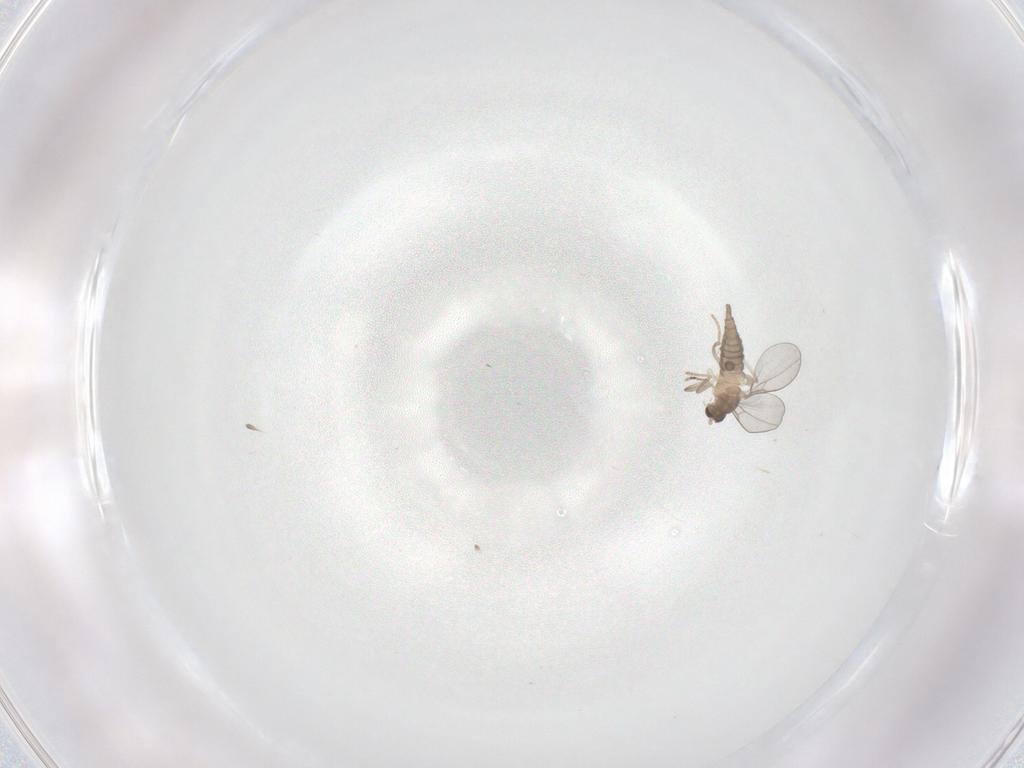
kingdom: Animalia
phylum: Arthropoda
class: Insecta
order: Diptera
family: Cecidomyiidae
